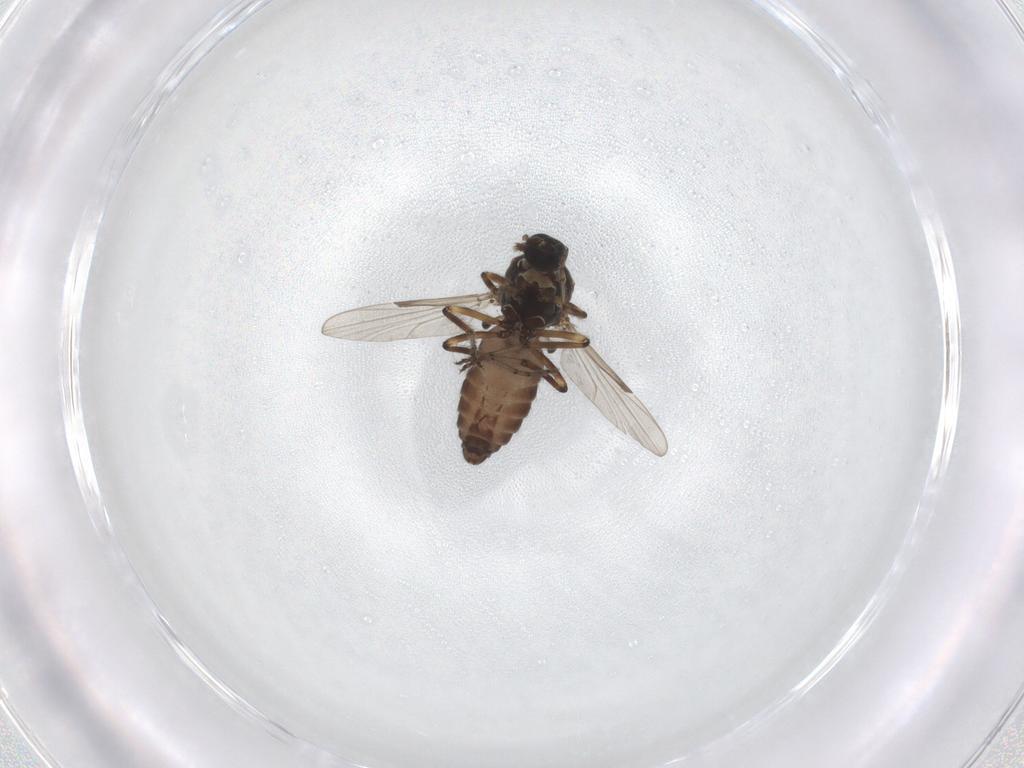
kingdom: Animalia
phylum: Arthropoda
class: Insecta
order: Diptera
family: Ceratopogonidae
